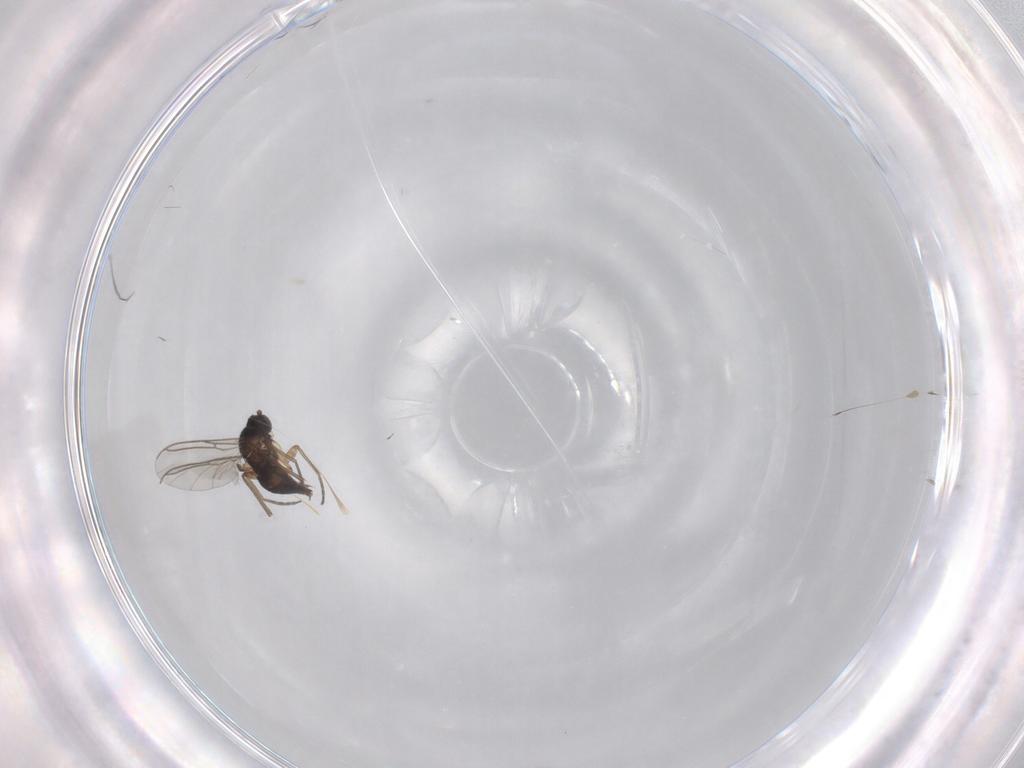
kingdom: Animalia
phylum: Arthropoda
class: Insecta
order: Diptera
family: Sciaridae
